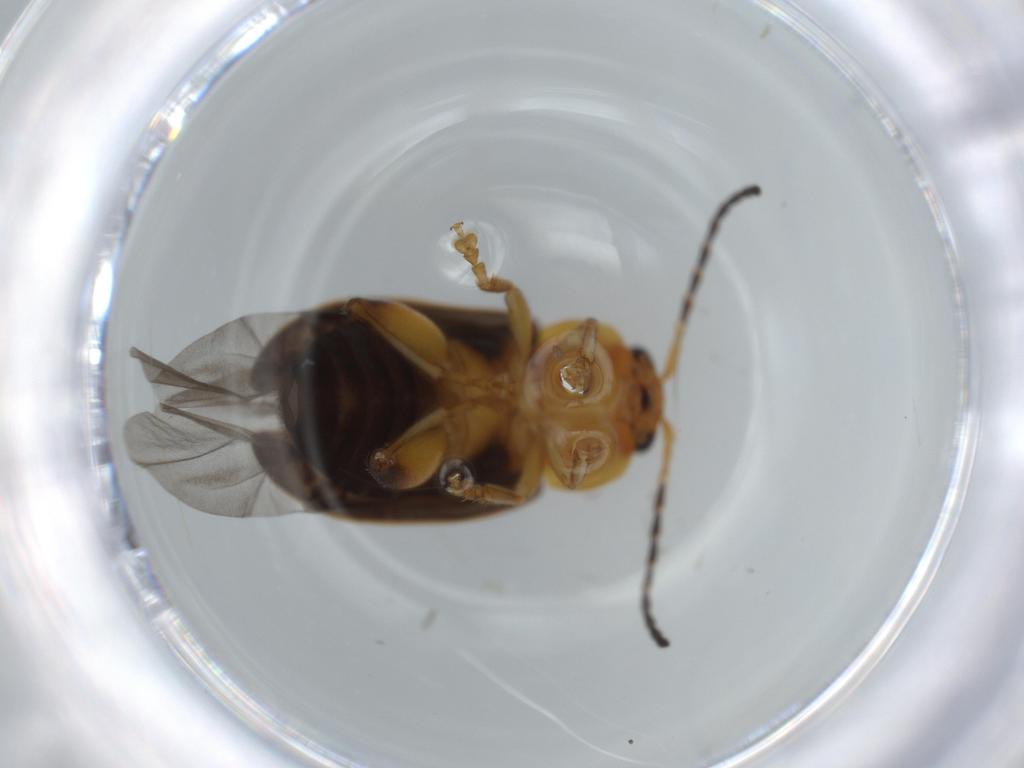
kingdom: Animalia
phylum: Arthropoda
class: Insecta
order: Coleoptera
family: Chrysomelidae
